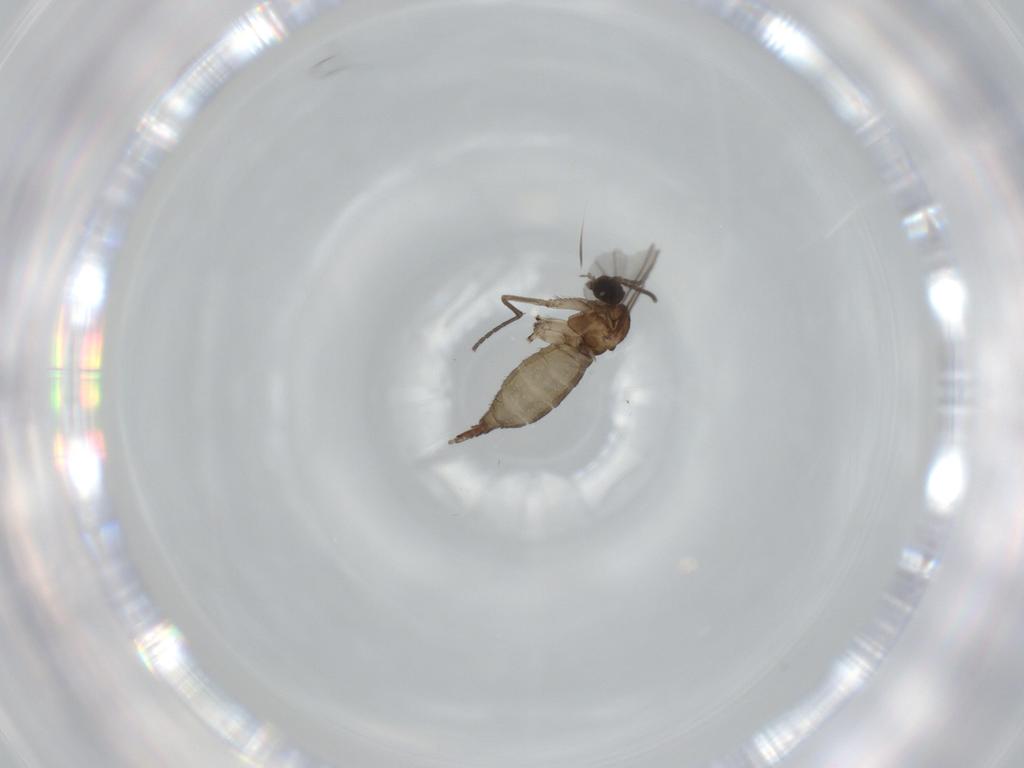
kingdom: Animalia
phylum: Arthropoda
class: Insecta
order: Diptera
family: Sciaridae
